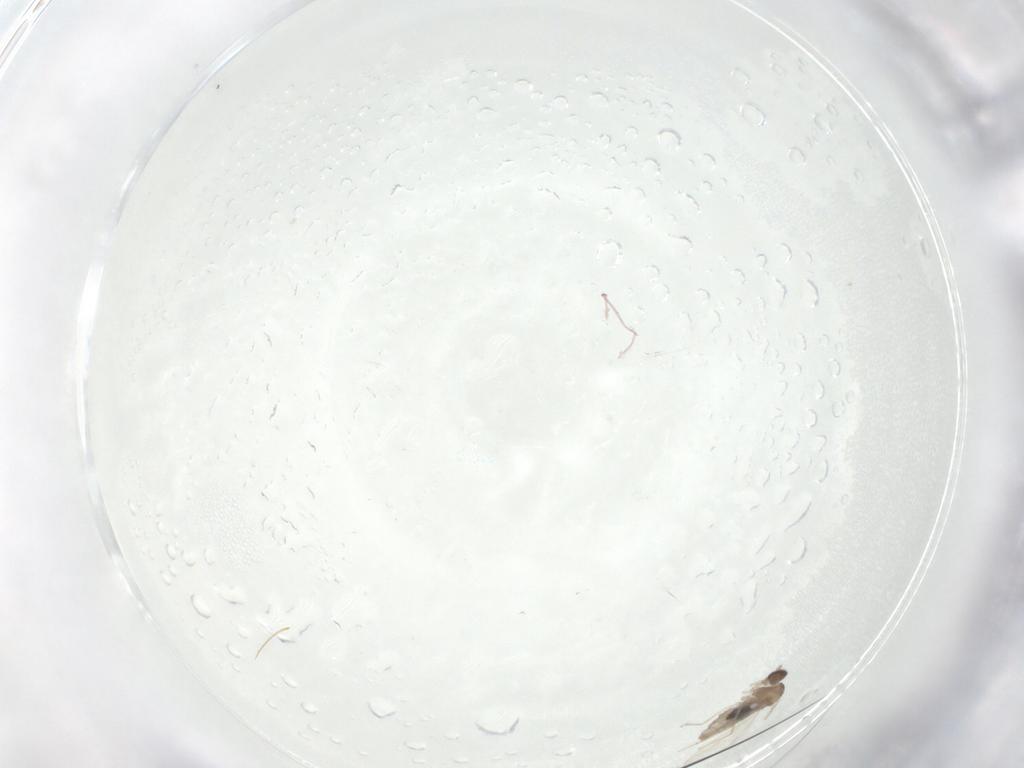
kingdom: Animalia
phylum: Arthropoda
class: Insecta
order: Diptera
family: Cecidomyiidae
